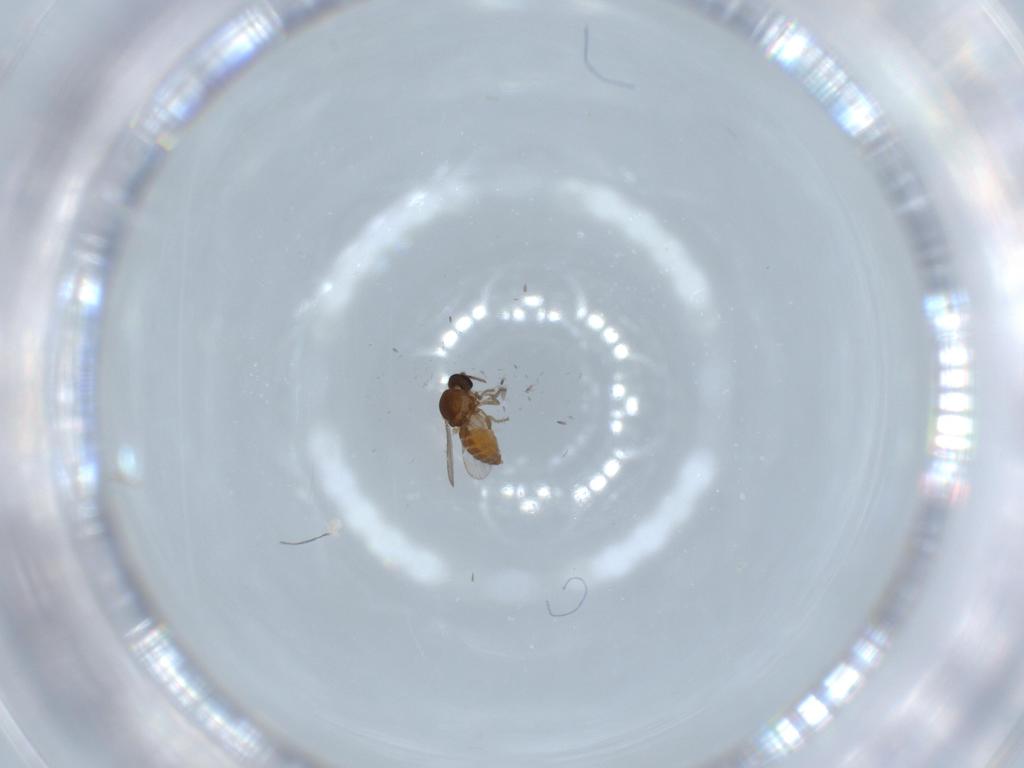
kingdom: Animalia
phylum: Arthropoda
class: Insecta
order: Diptera
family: Ceratopogonidae
